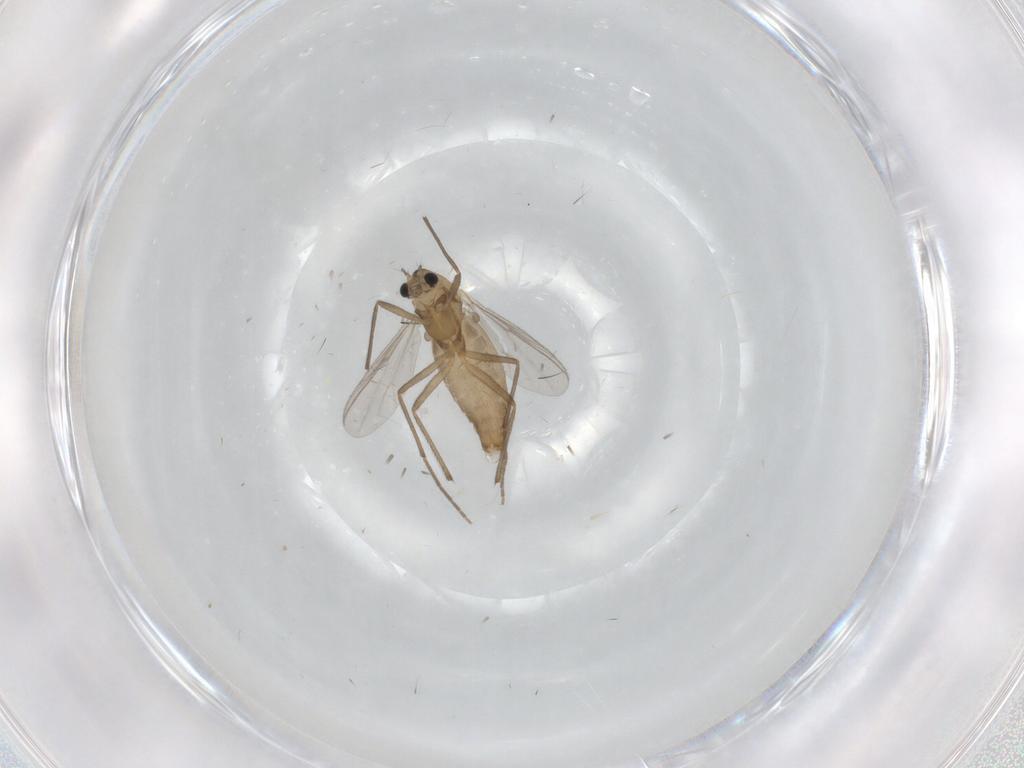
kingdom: Animalia
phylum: Arthropoda
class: Insecta
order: Diptera
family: Chironomidae
